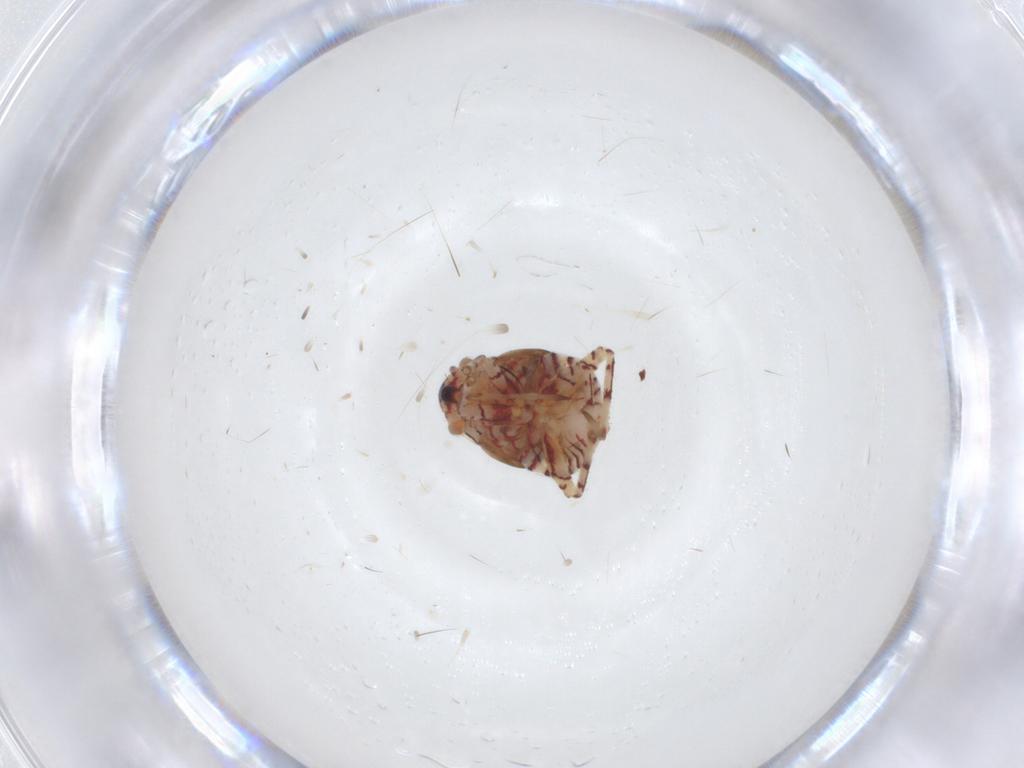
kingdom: Animalia
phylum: Arthropoda
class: Insecta
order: Hemiptera
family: Miridae
